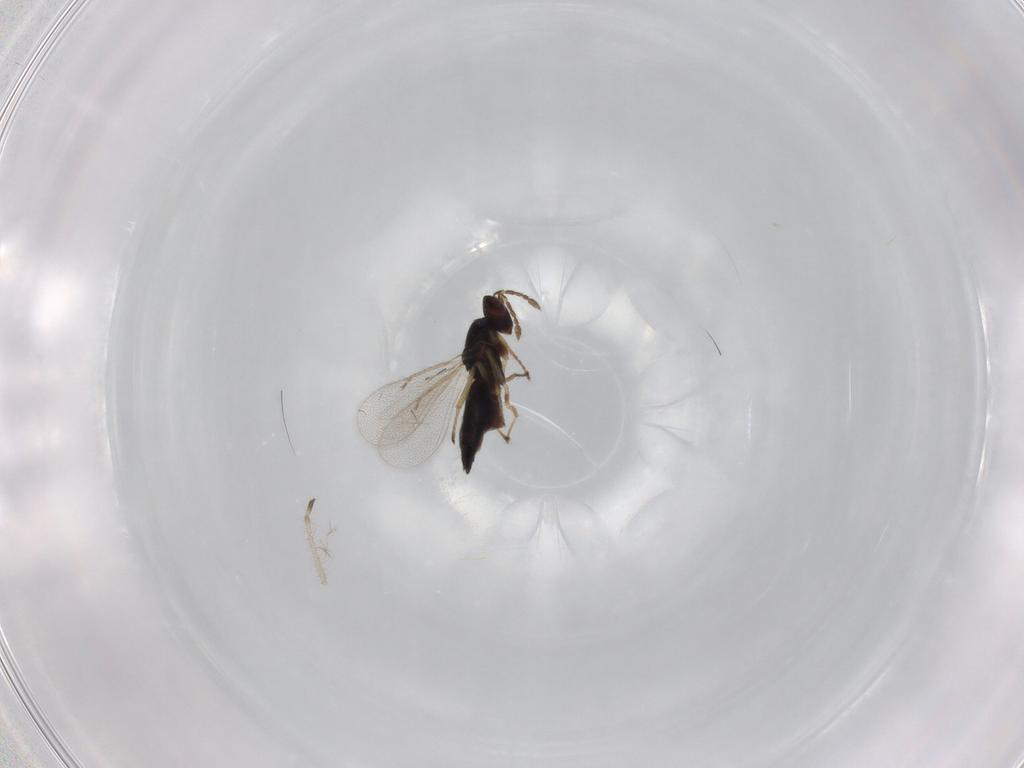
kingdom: Animalia
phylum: Arthropoda
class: Insecta
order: Hymenoptera
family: Eulophidae
